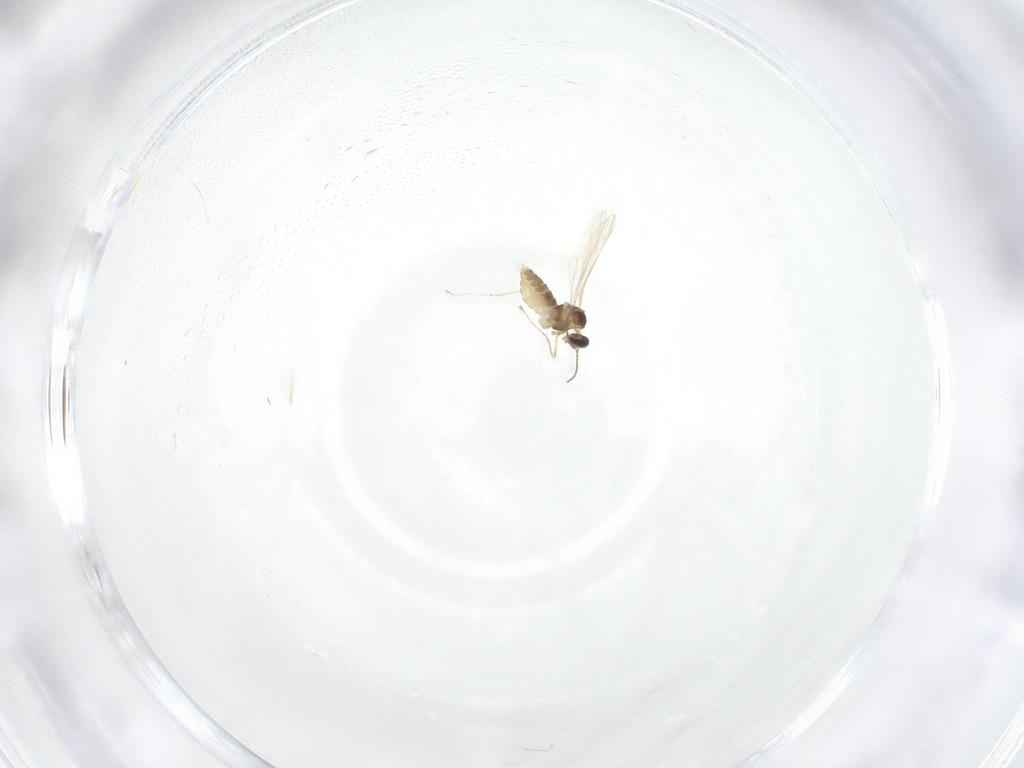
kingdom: Animalia
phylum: Arthropoda
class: Insecta
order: Diptera
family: Cecidomyiidae
